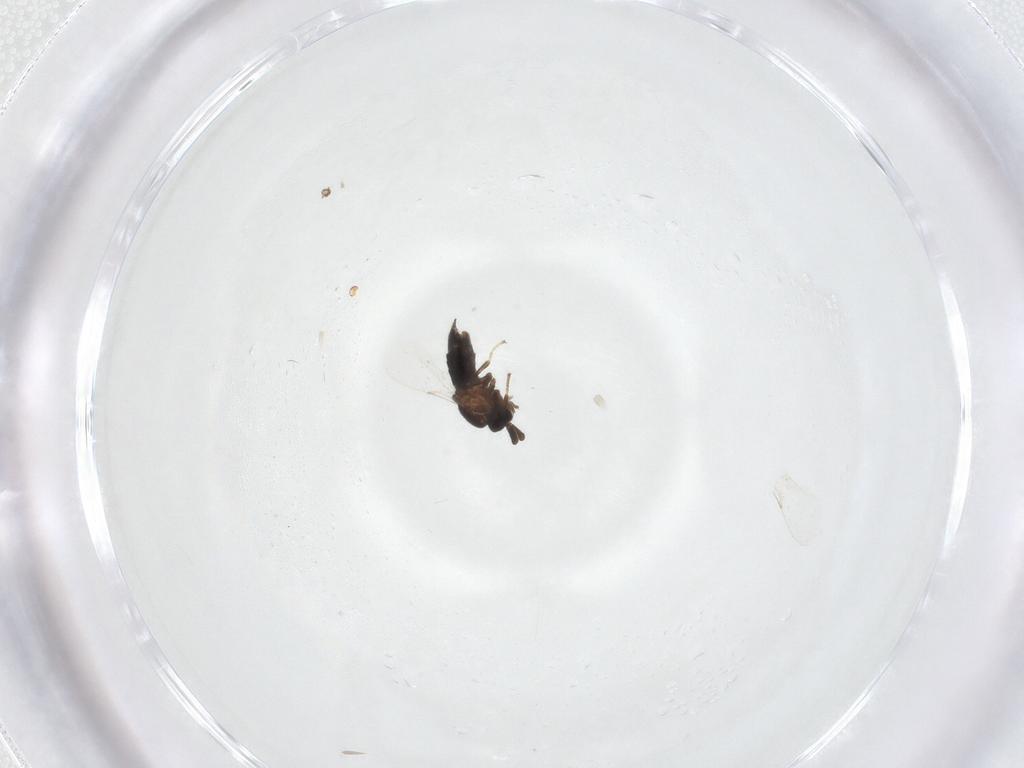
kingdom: Animalia
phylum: Arthropoda
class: Insecta
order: Diptera
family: Scatopsidae
